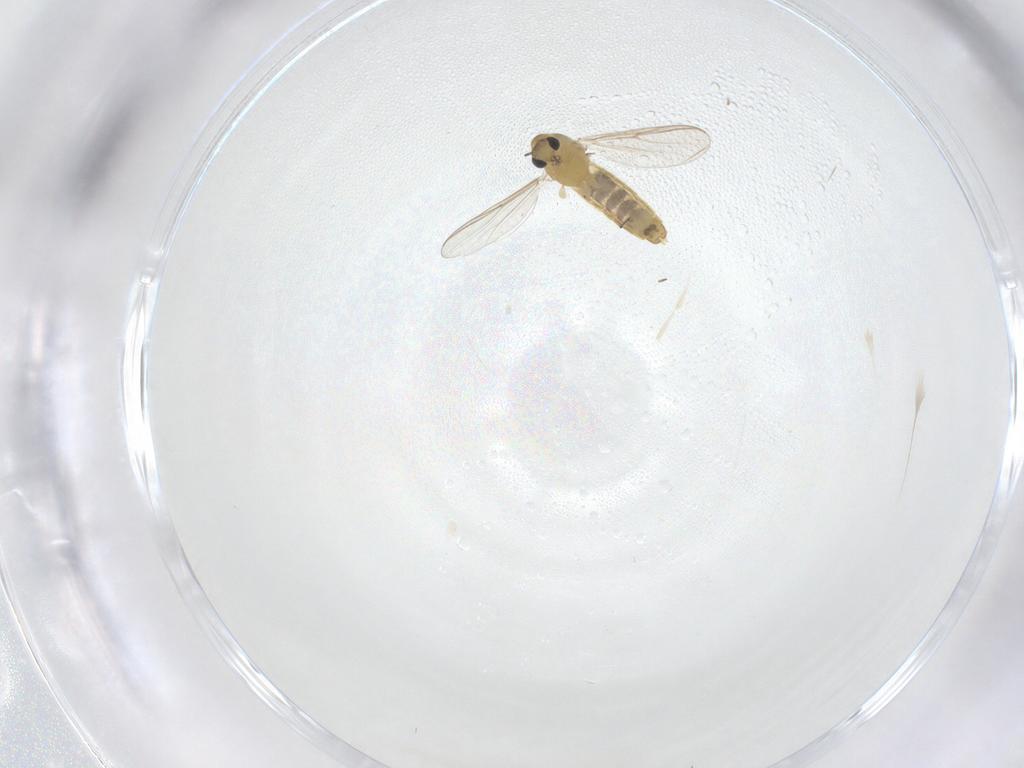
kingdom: Animalia
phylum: Arthropoda
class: Insecta
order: Diptera
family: Chironomidae
